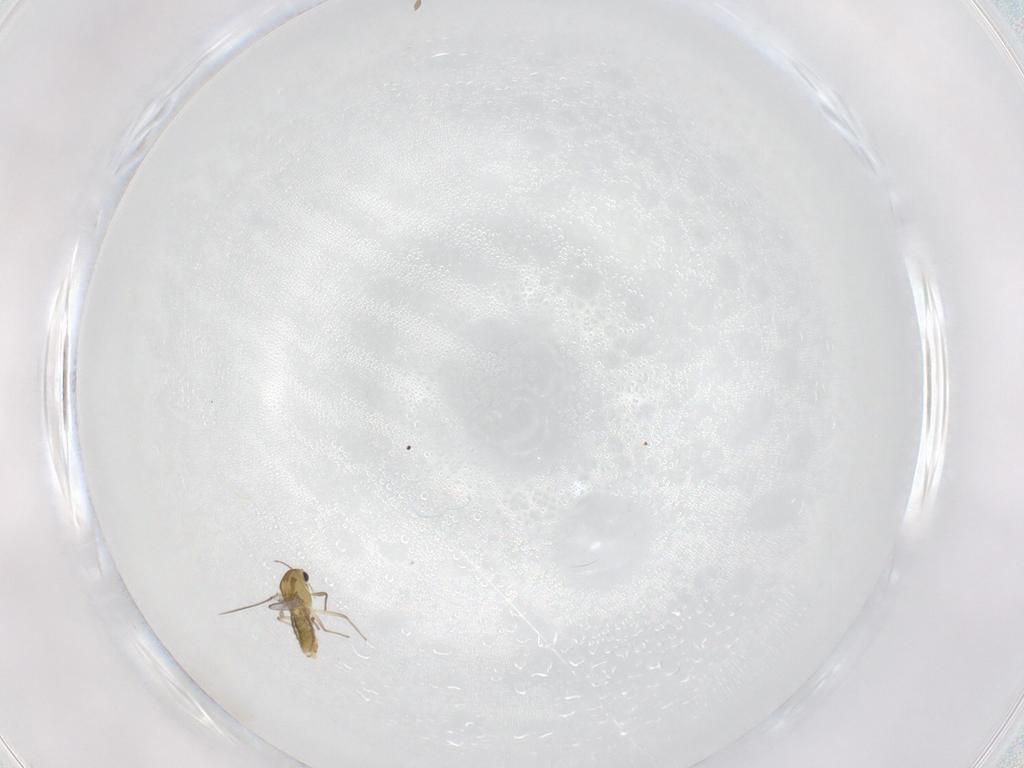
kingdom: Animalia
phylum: Arthropoda
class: Insecta
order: Diptera
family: Chironomidae
